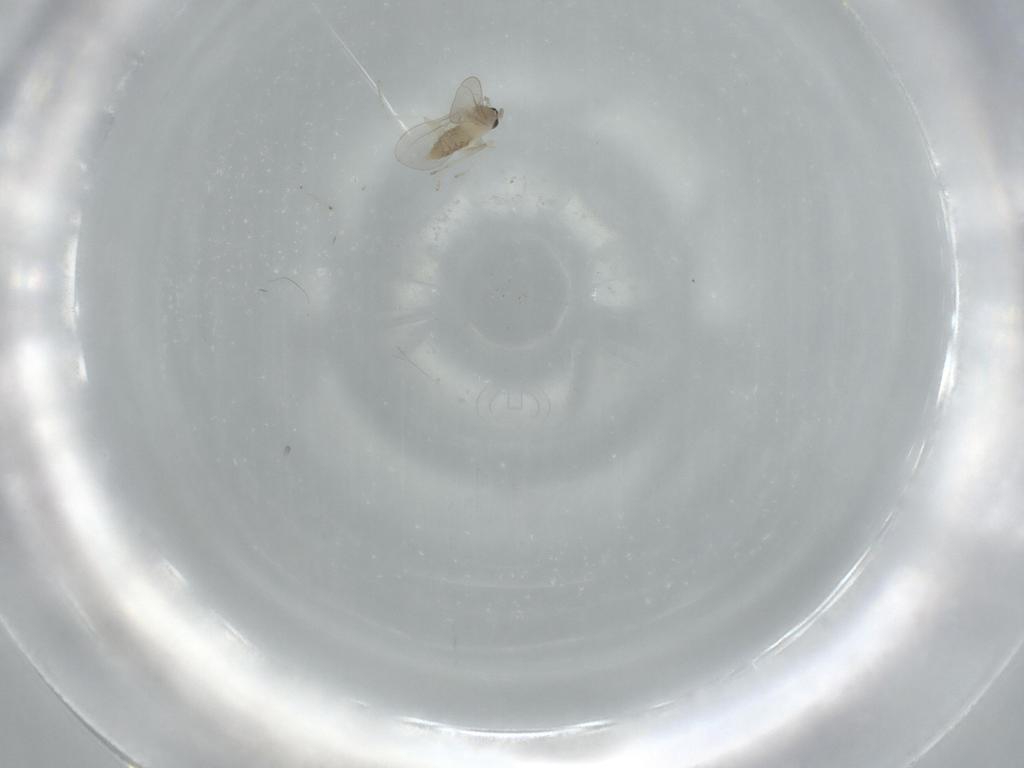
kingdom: Animalia
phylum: Arthropoda
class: Insecta
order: Diptera
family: Cecidomyiidae
